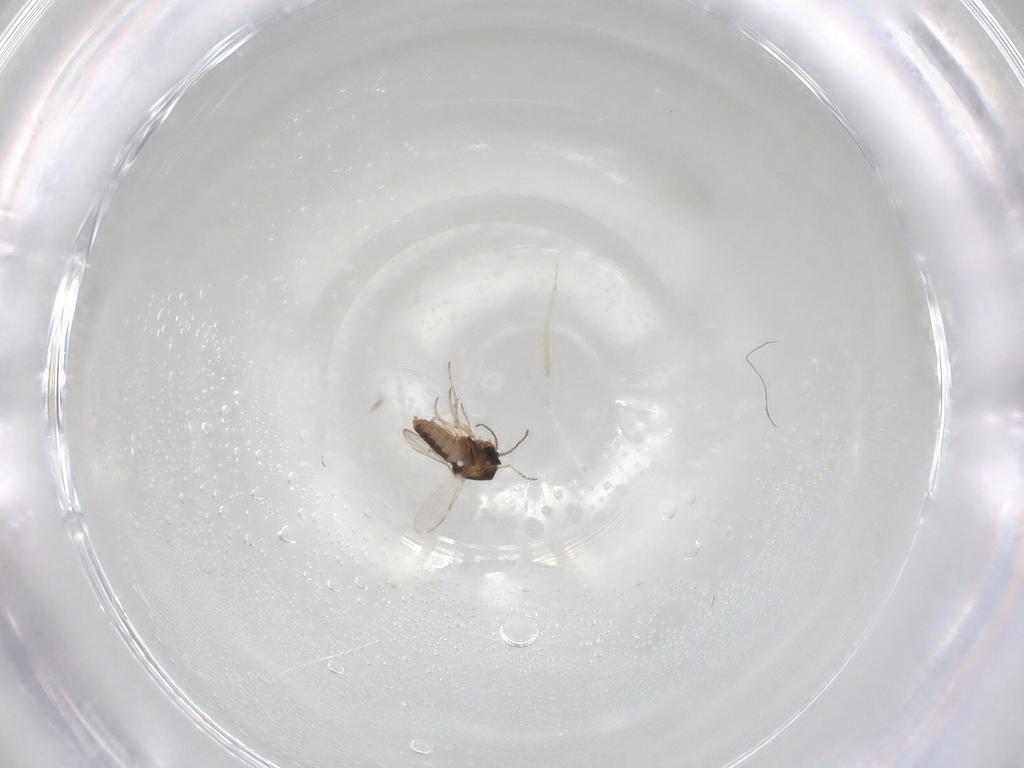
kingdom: Animalia
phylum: Arthropoda
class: Insecta
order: Diptera
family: Ceratopogonidae
